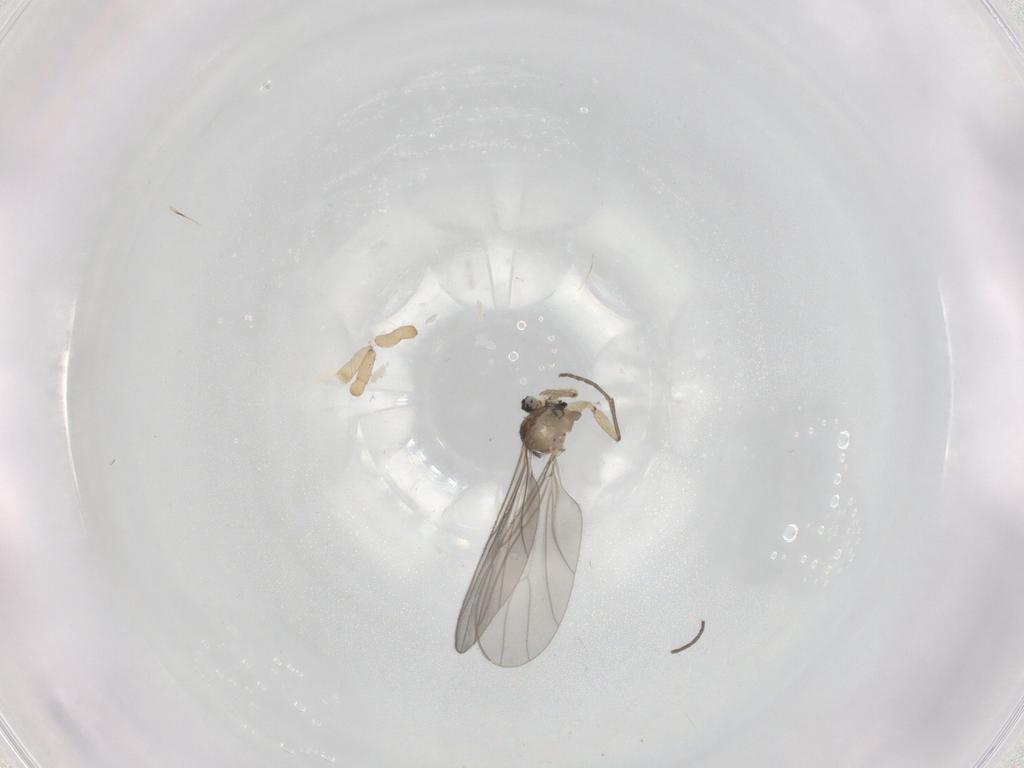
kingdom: Animalia
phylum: Arthropoda
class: Insecta
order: Diptera
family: Sciaridae
